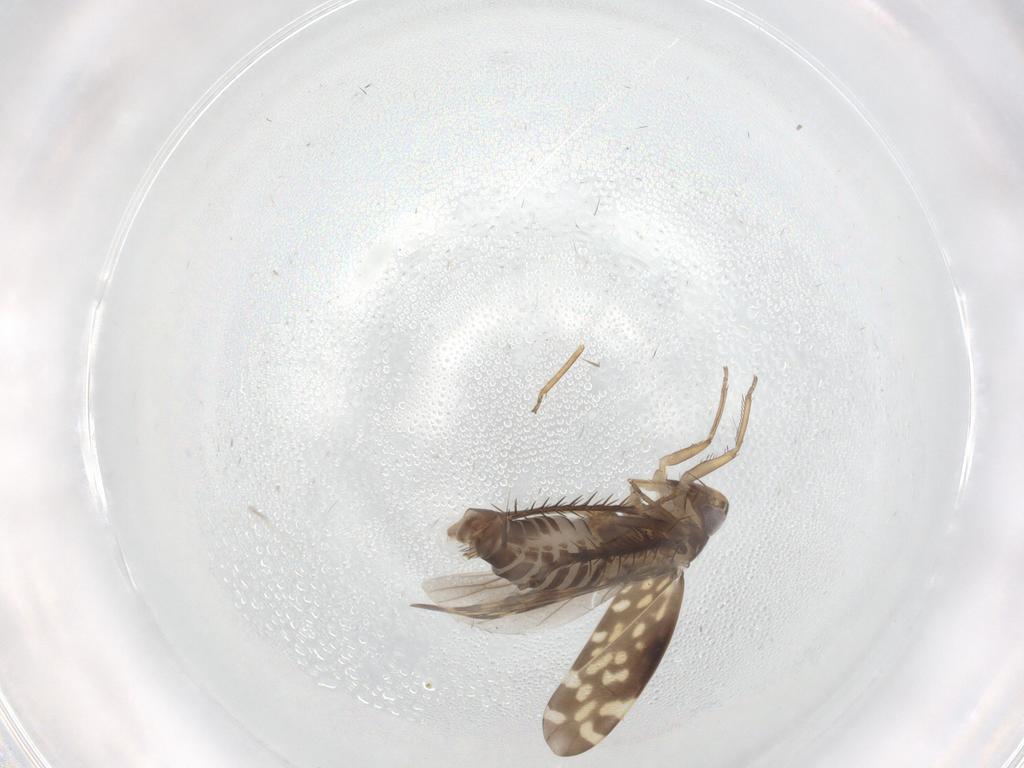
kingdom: Animalia
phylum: Arthropoda
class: Insecta
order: Hemiptera
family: Cicadellidae
